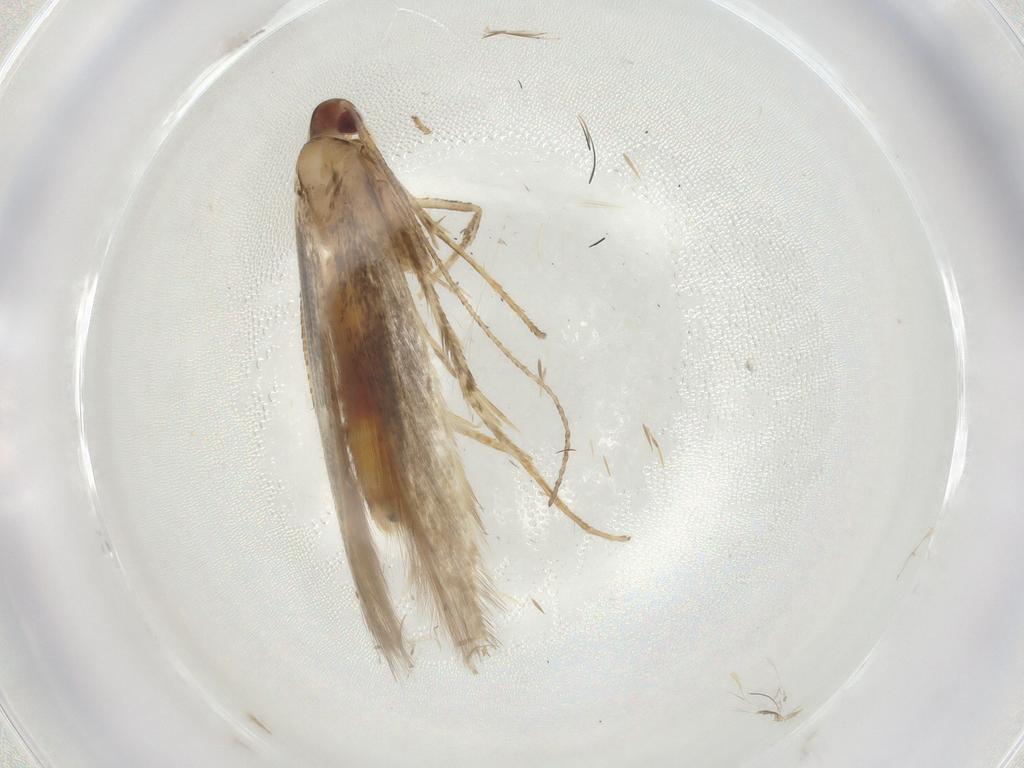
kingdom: Animalia
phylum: Arthropoda
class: Insecta
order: Lepidoptera
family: Cosmopterigidae
